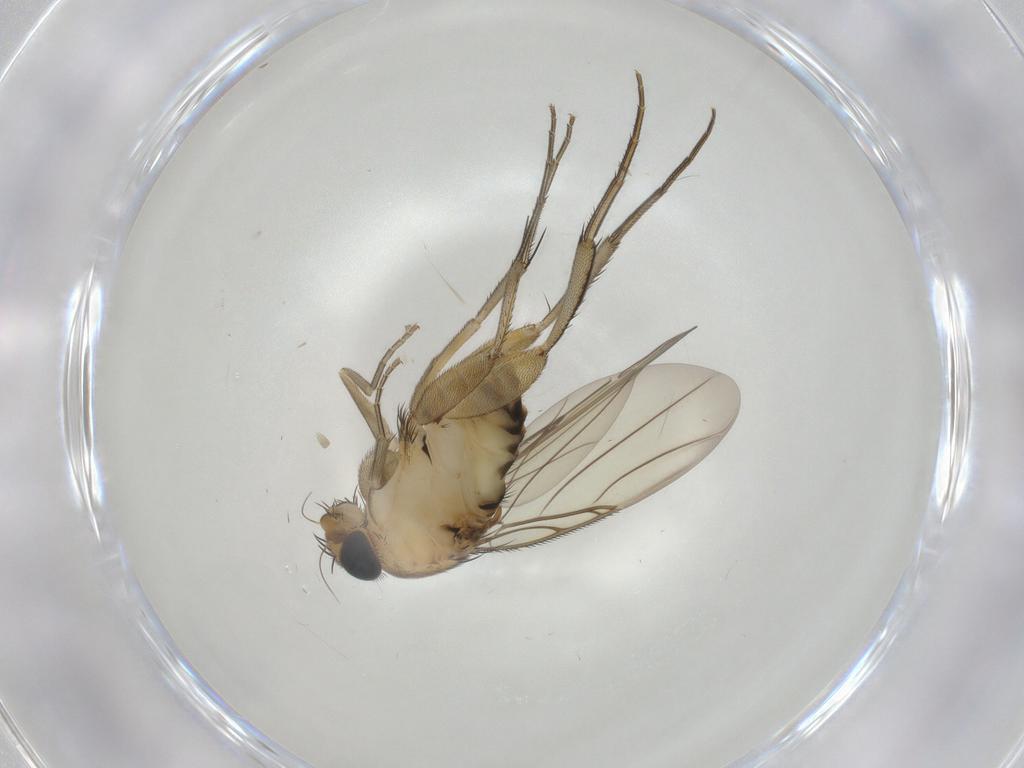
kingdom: Animalia
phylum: Arthropoda
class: Insecta
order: Diptera
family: Phoridae
